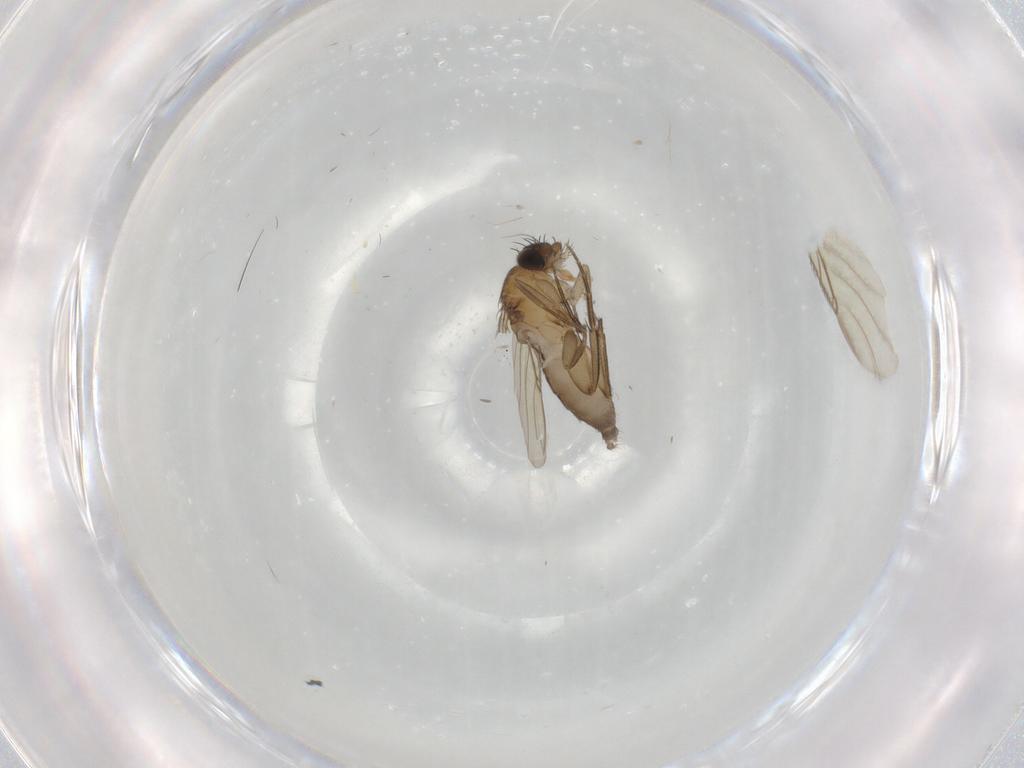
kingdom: Animalia
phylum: Arthropoda
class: Insecta
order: Diptera
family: Phoridae
